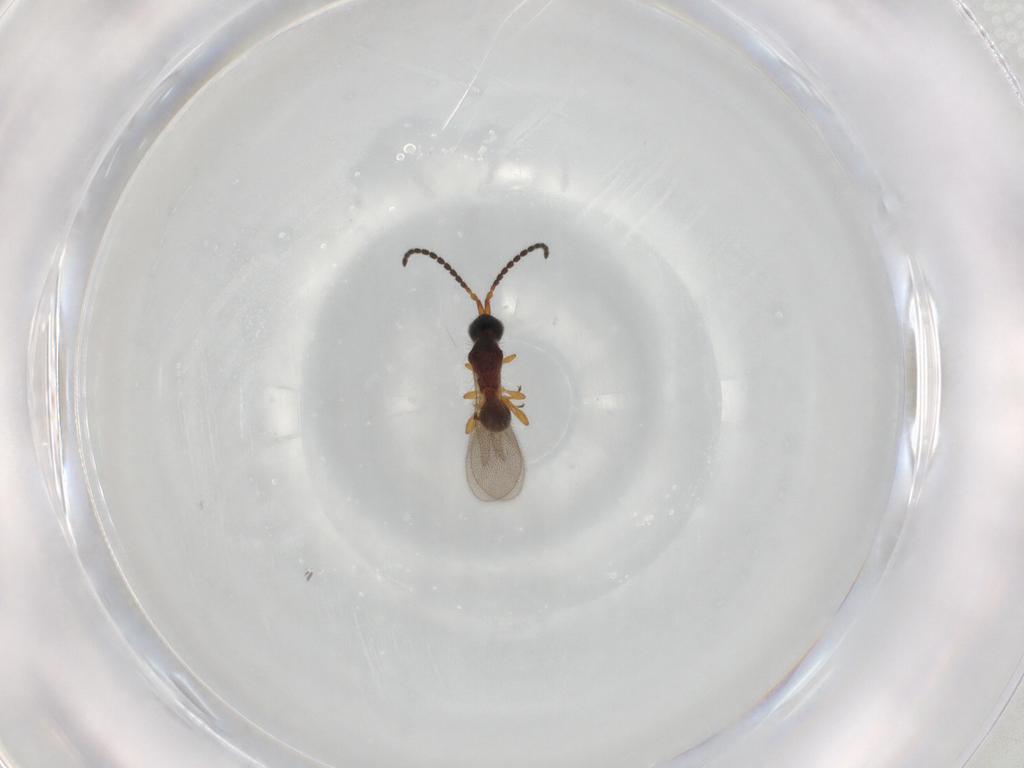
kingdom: Animalia
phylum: Arthropoda
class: Insecta
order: Hymenoptera
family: Diapriidae
